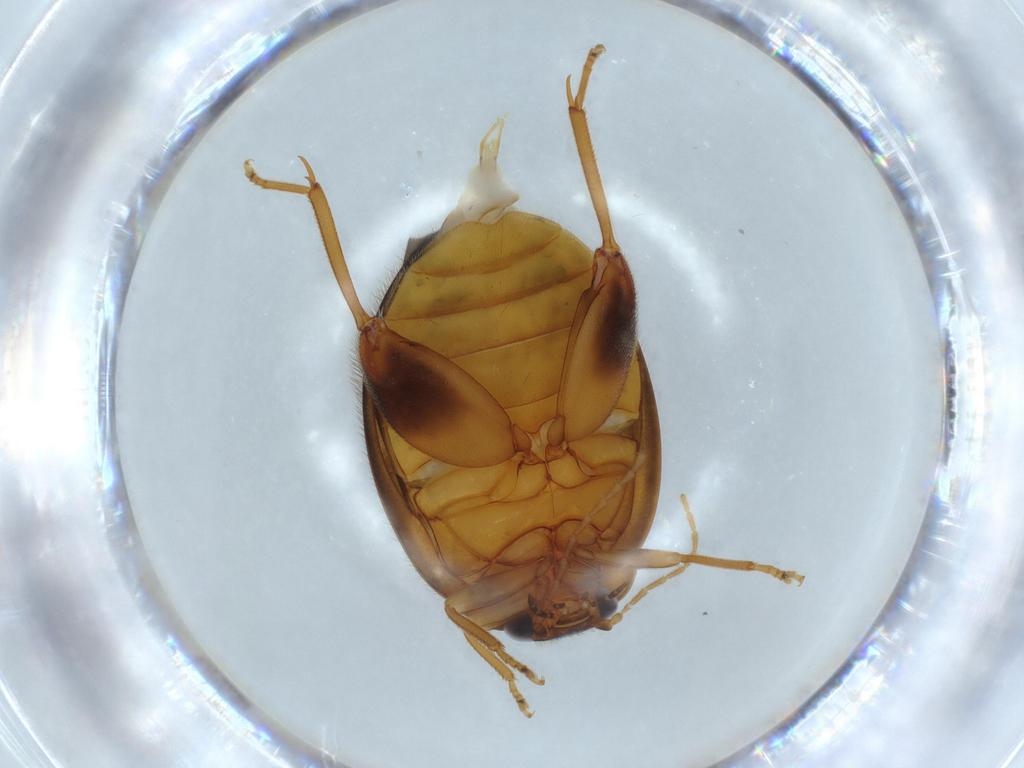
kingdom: Animalia
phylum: Arthropoda
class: Insecta
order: Coleoptera
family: Scirtidae
